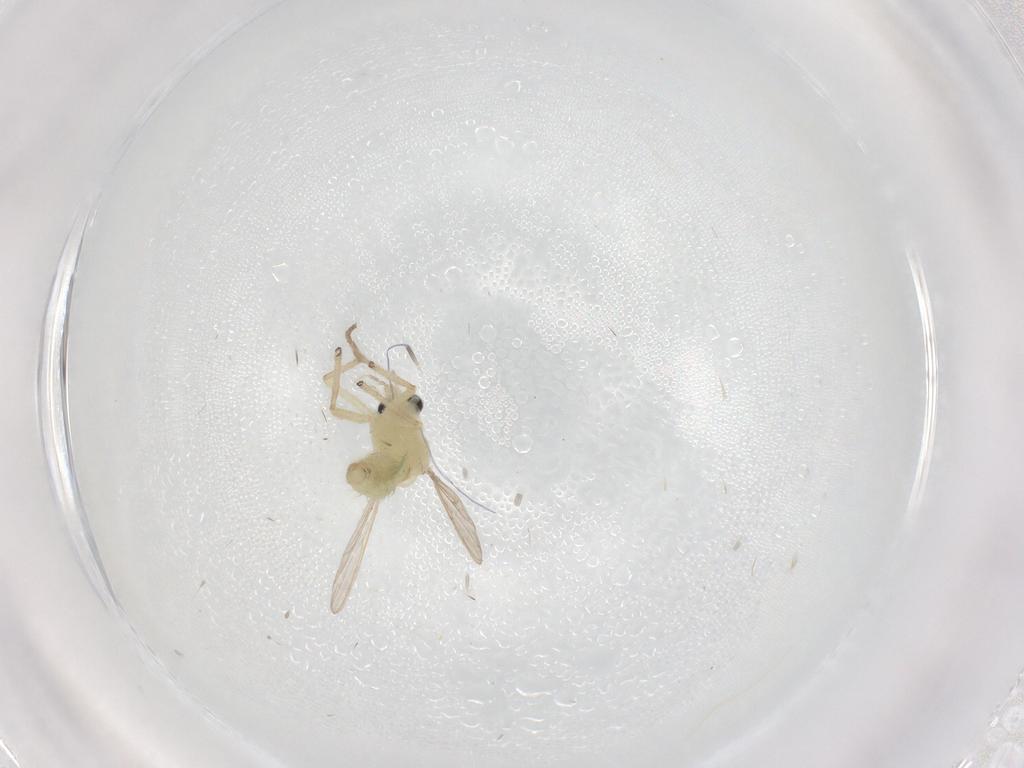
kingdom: Animalia
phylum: Arthropoda
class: Insecta
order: Diptera
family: Chironomidae
